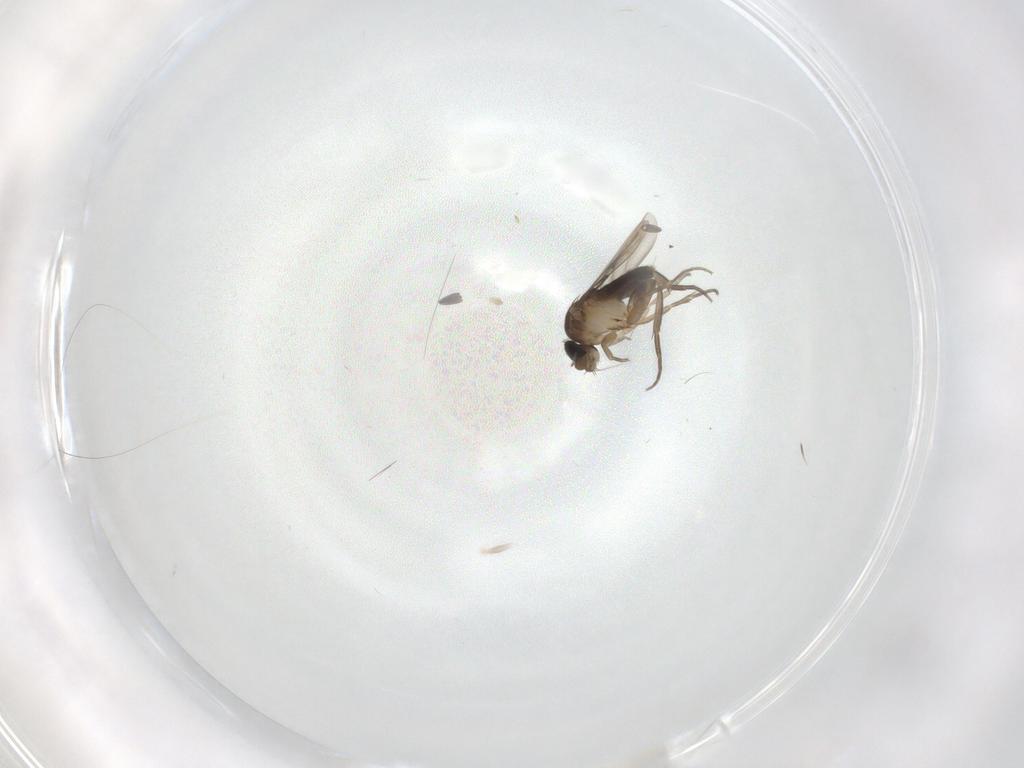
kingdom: Animalia
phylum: Arthropoda
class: Insecta
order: Diptera
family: Phoridae
